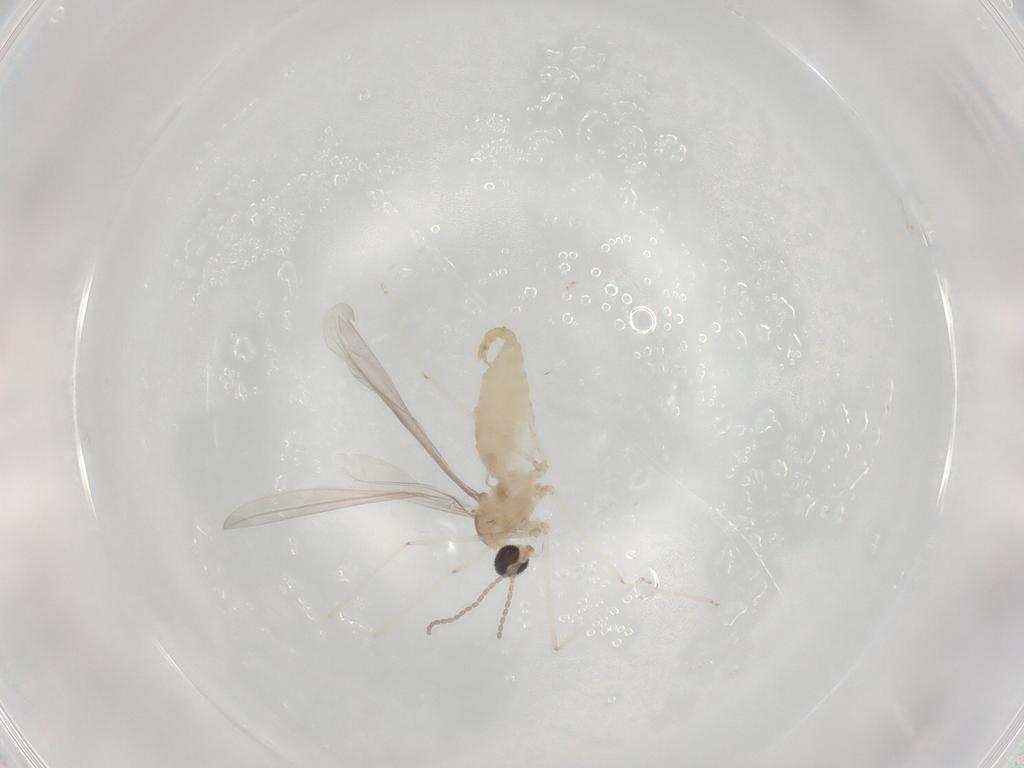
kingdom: Animalia
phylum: Arthropoda
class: Insecta
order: Diptera
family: Cecidomyiidae
